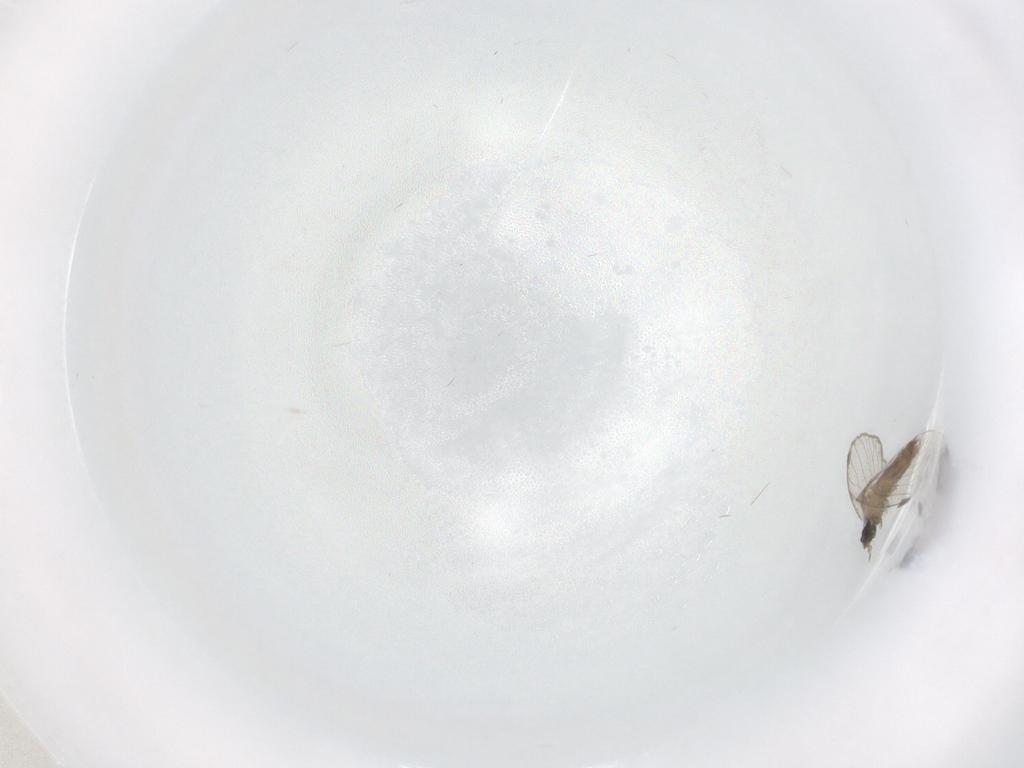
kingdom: Animalia
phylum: Arthropoda
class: Insecta
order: Diptera
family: Psychodidae
